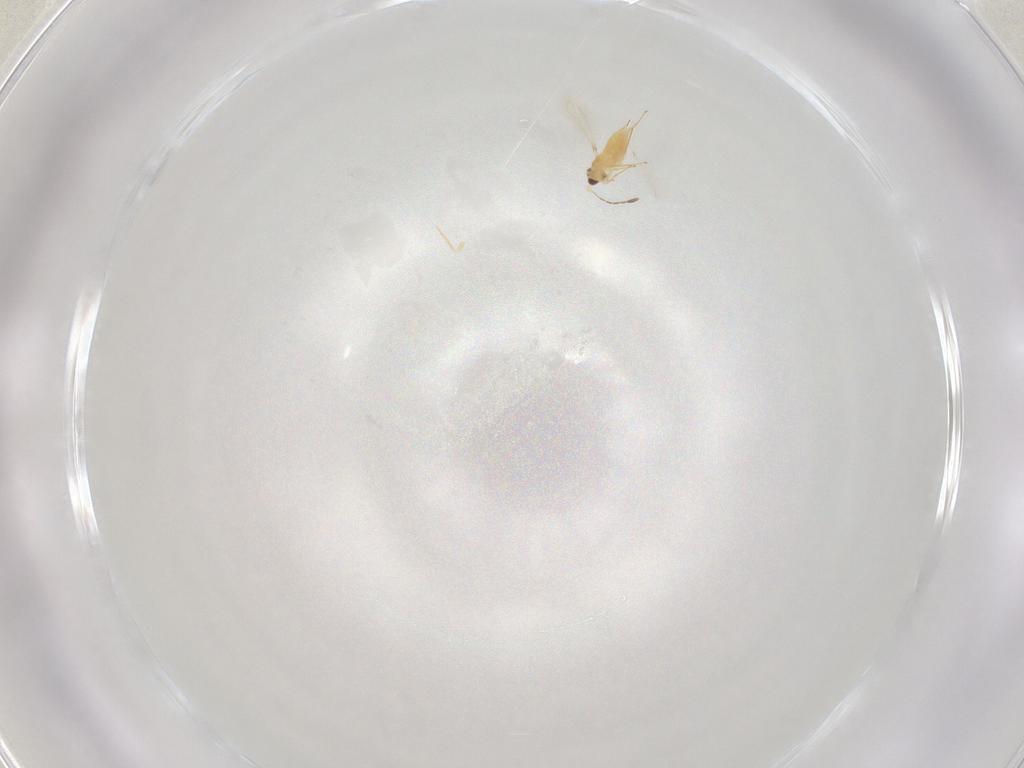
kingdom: Animalia
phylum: Arthropoda
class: Insecta
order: Hymenoptera
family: Mymaridae
